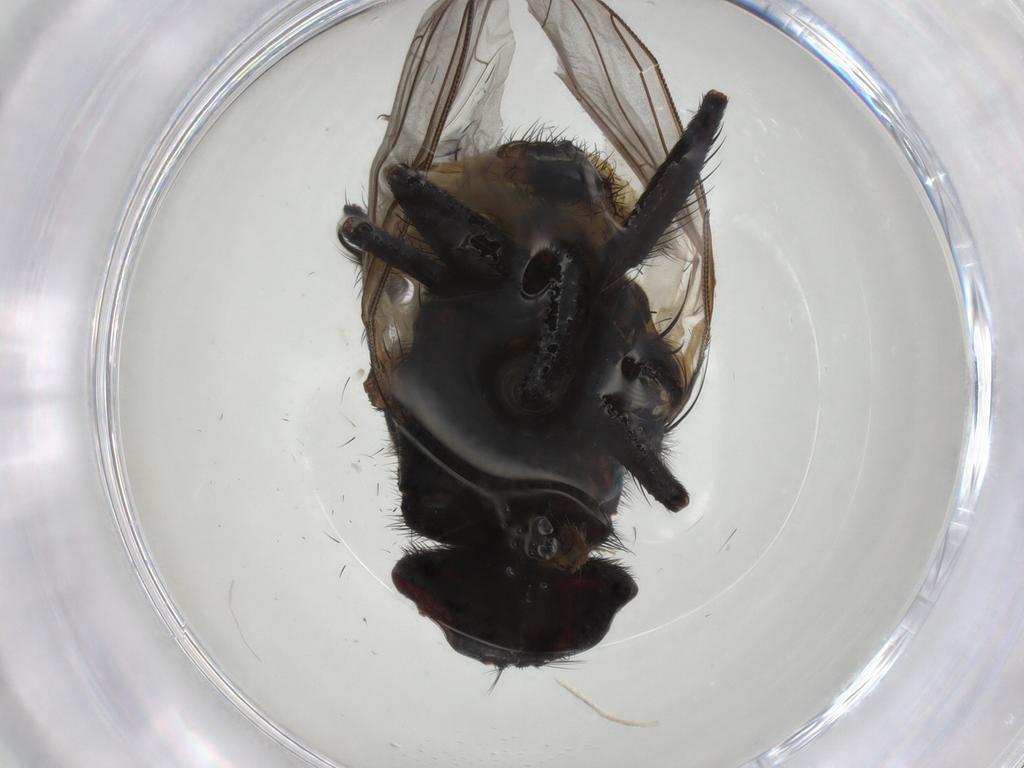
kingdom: Animalia
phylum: Arthropoda
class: Insecta
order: Diptera
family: Muscidae
